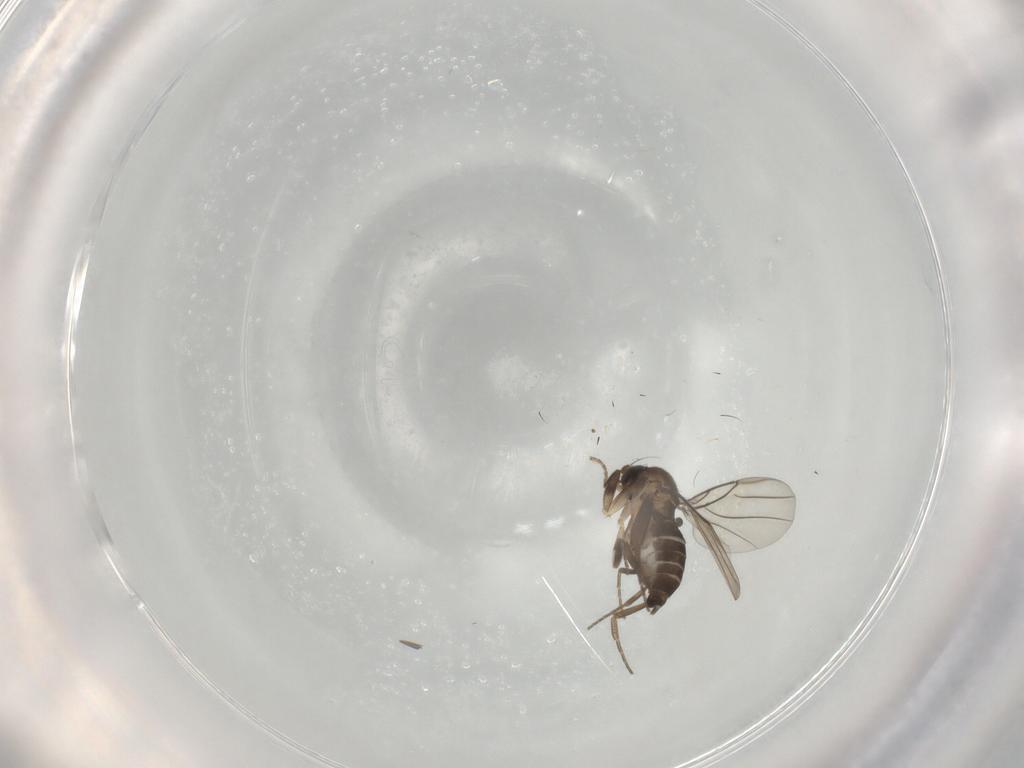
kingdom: Animalia
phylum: Arthropoda
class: Insecta
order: Diptera
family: Phoridae
